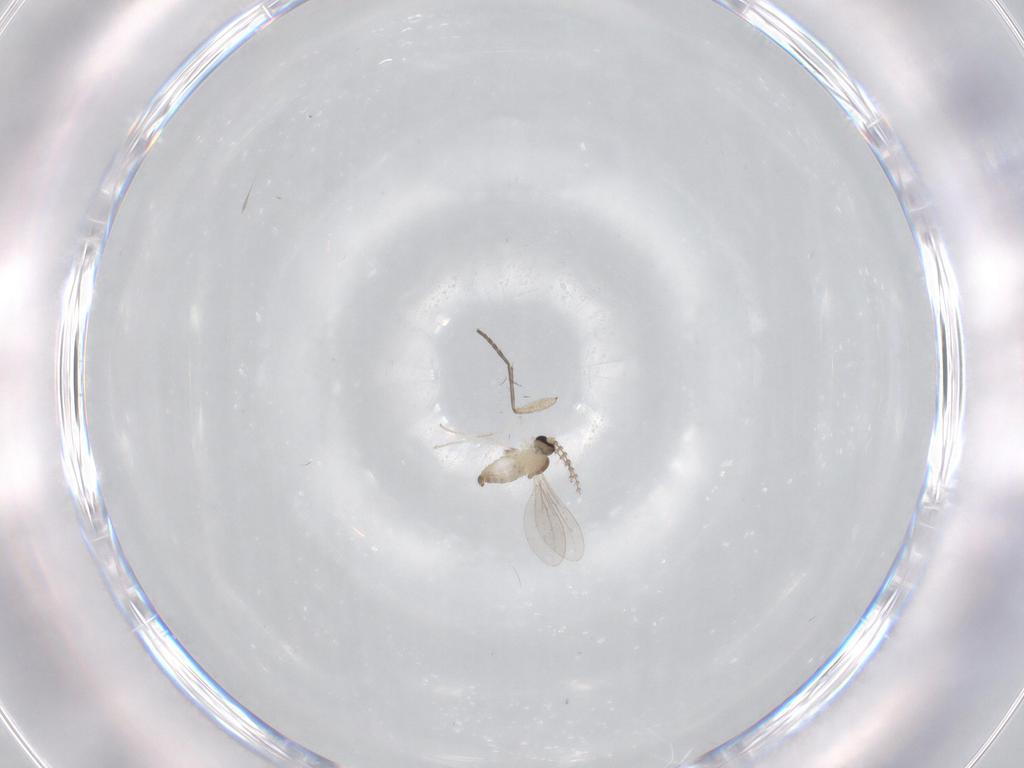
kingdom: Animalia
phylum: Arthropoda
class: Insecta
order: Diptera
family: Cecidomyiidae
